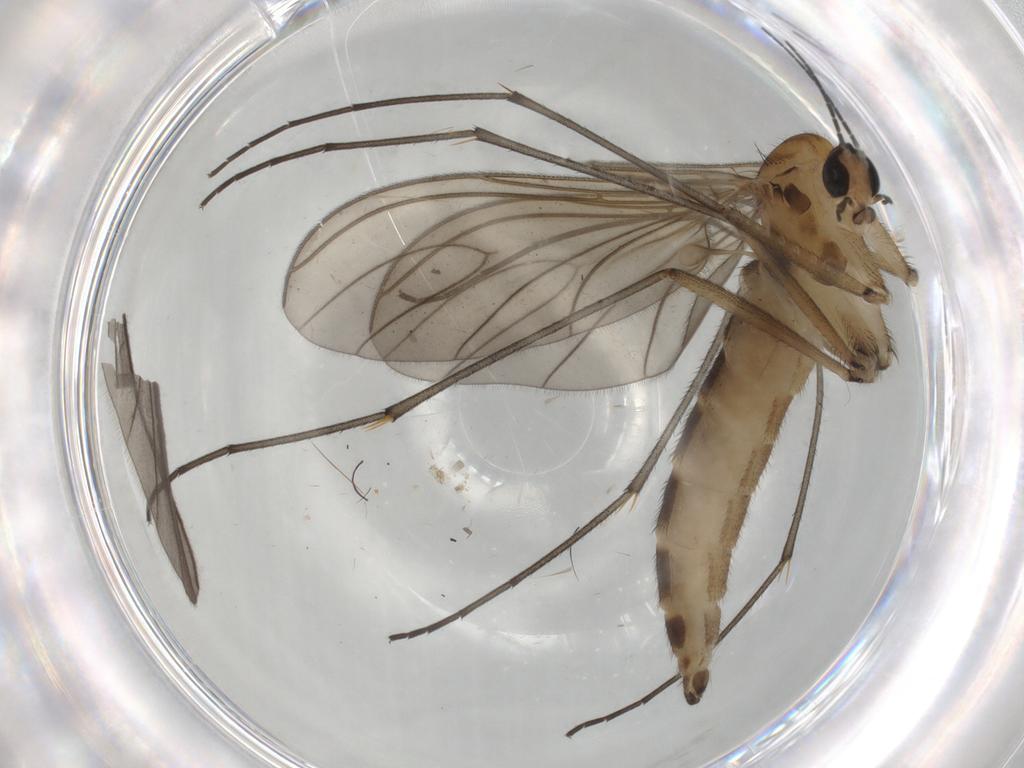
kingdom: Animalia
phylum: Arthropoda
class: Insecta
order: Diptera
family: Sciaridae
